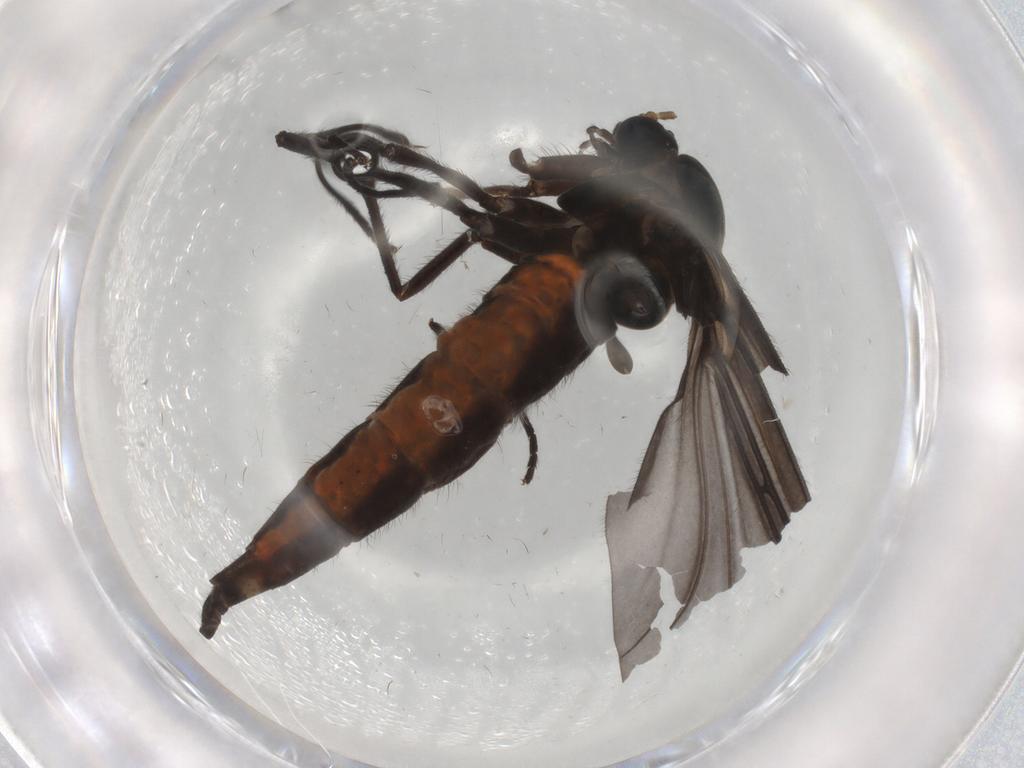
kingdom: Animalia
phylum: Arthropoda
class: Insecta
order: Diptera
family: Sciaridae
